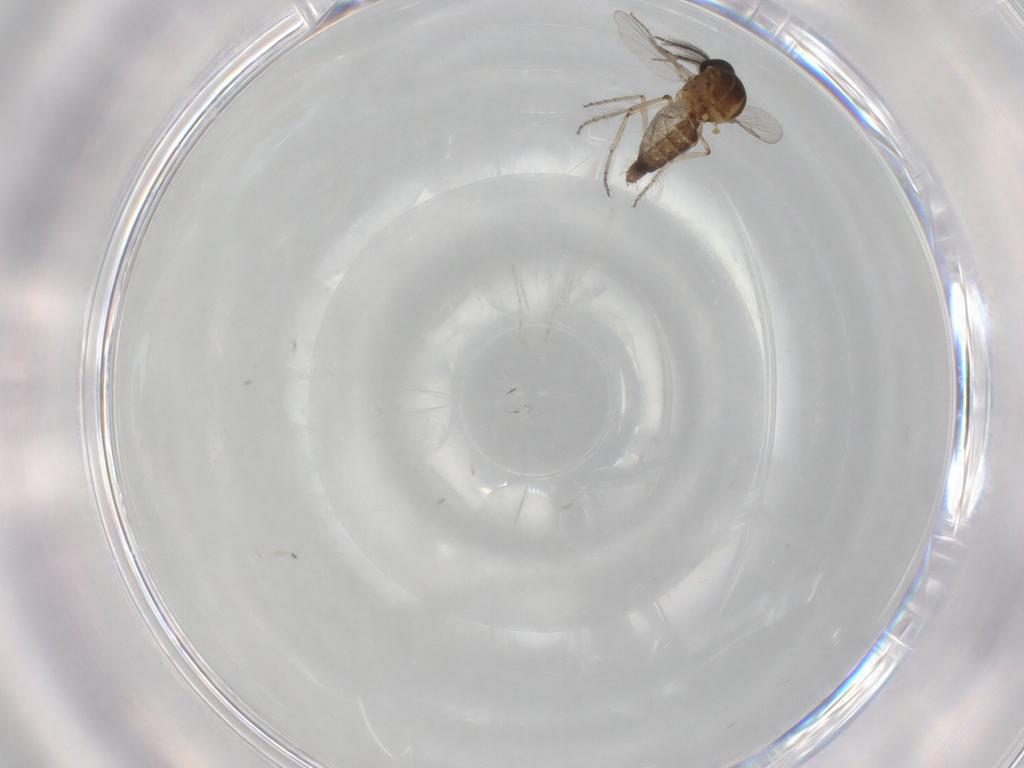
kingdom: Animalia
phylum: Arthropoda
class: Insecta
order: Diptera
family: Ceratopogonidae
